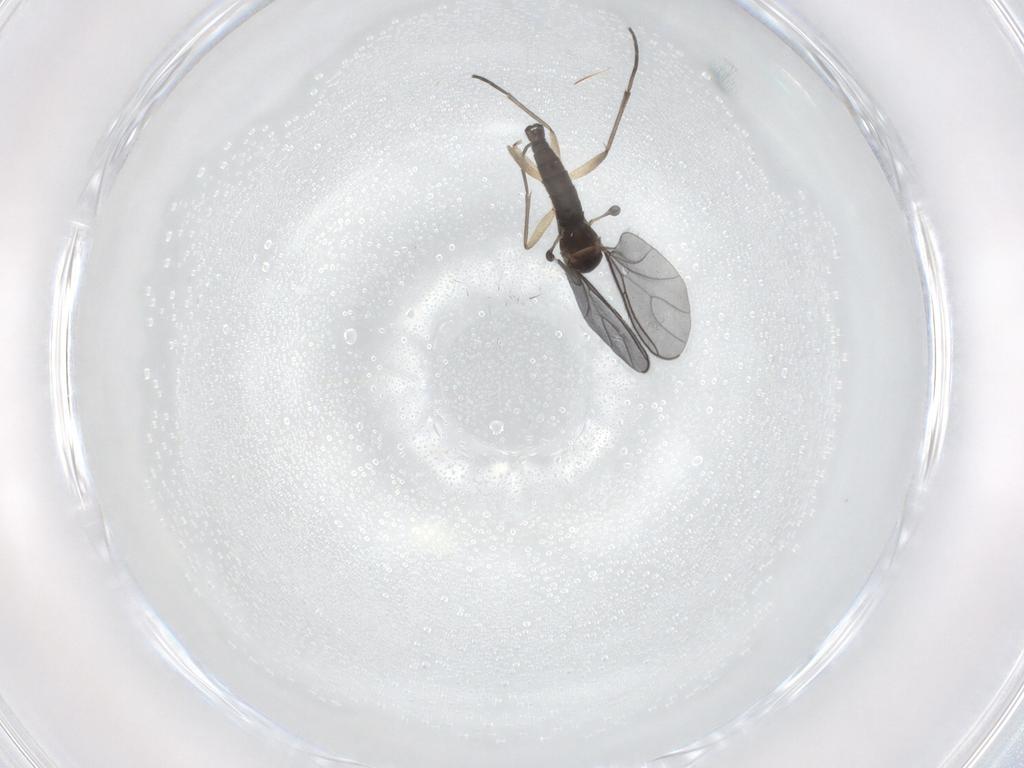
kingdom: Animalia
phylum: Arthropoda
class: Insecta
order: Diptera
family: Sciaridae
